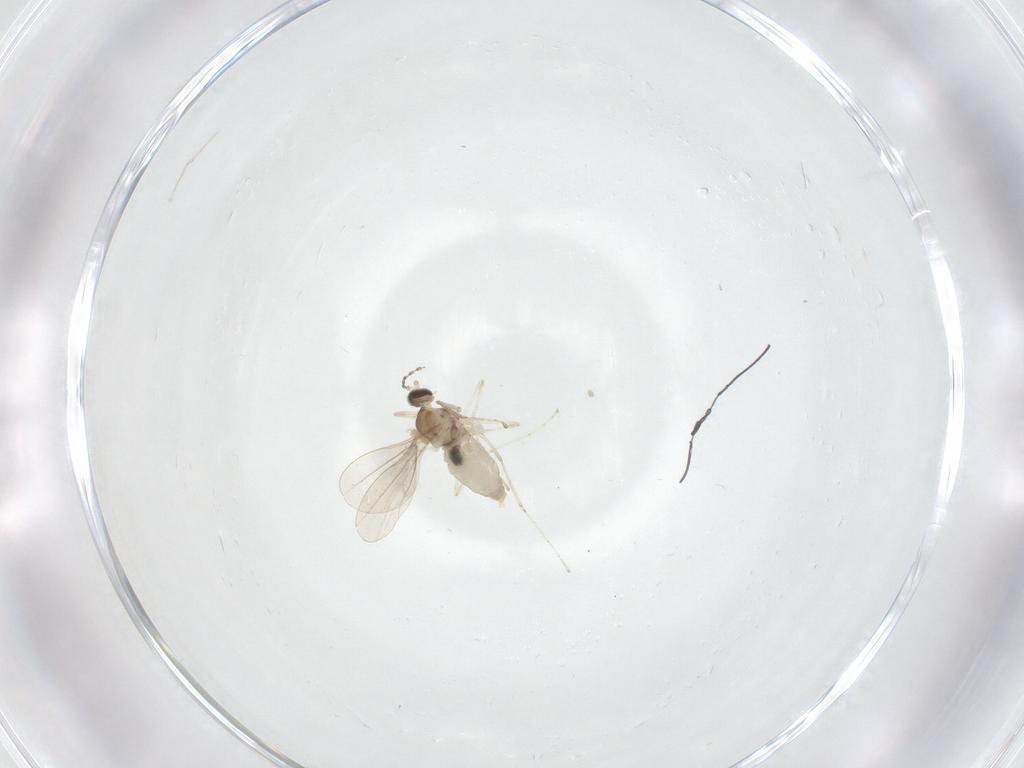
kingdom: Animalia
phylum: Arthropoda
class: Insecta
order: Diptera
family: Cecidomyiidae
